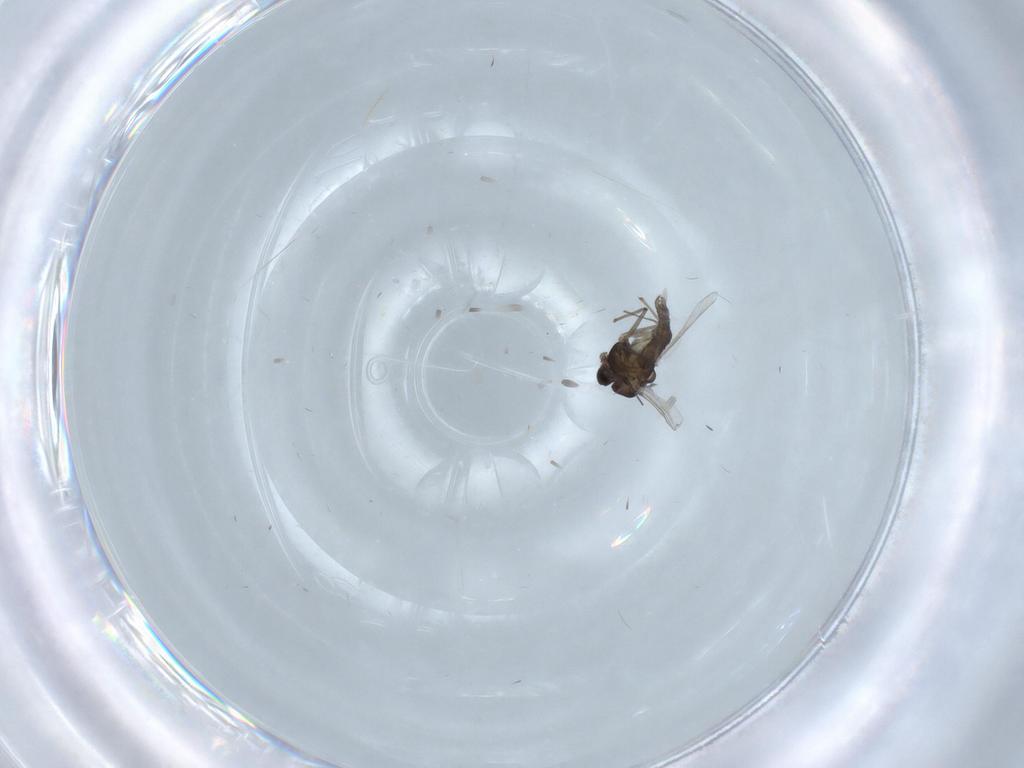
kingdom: Animalia
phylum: Arthropoda
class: Insecta
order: Diptera
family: Chironomidae
